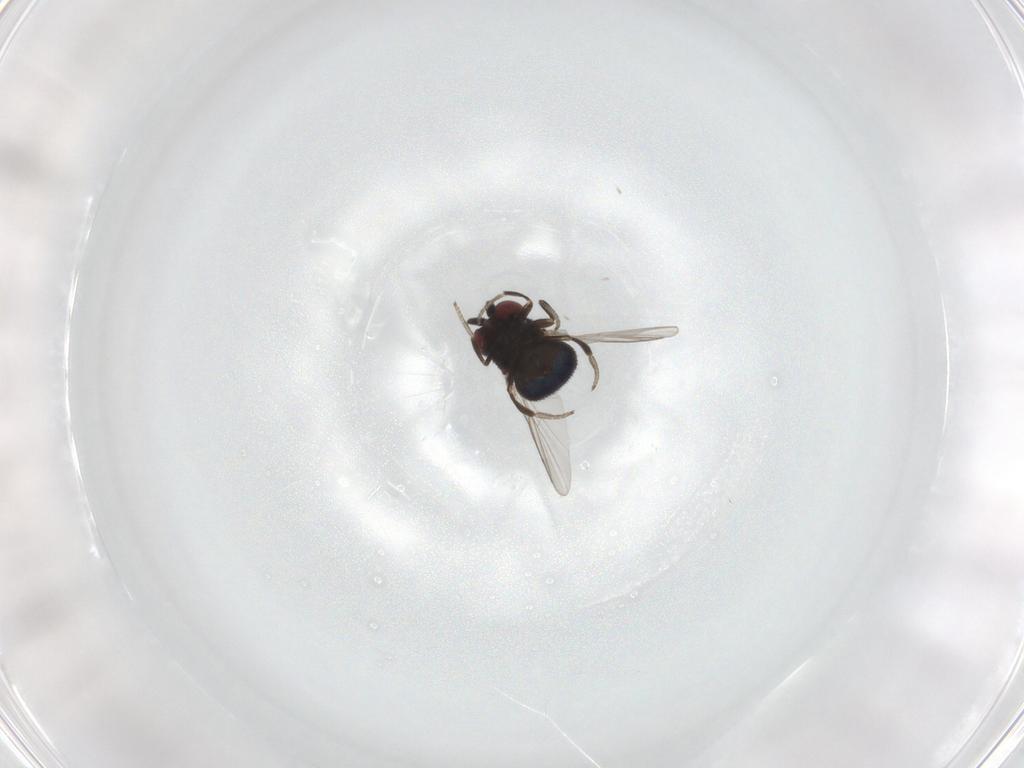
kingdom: Animalia
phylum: Arthropoda
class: Insecta
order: Diptera
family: Cryptochetidae
